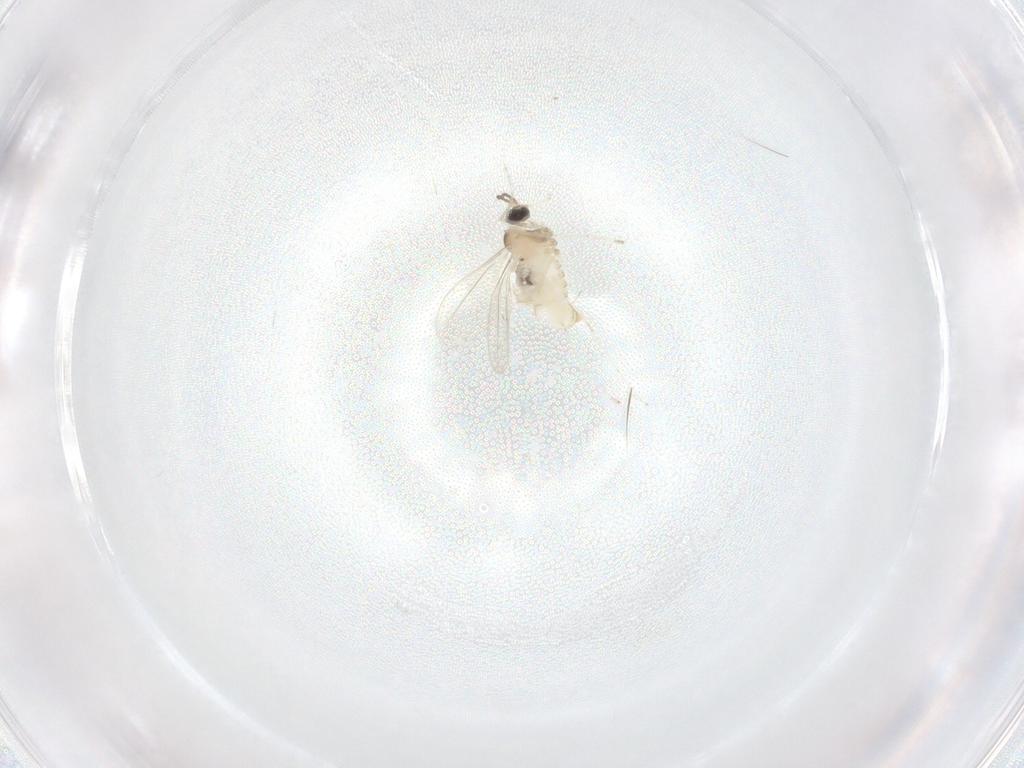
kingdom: Animalia
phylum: Arthropoda
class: Insecta
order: Diptera
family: Cecidomyiidae
